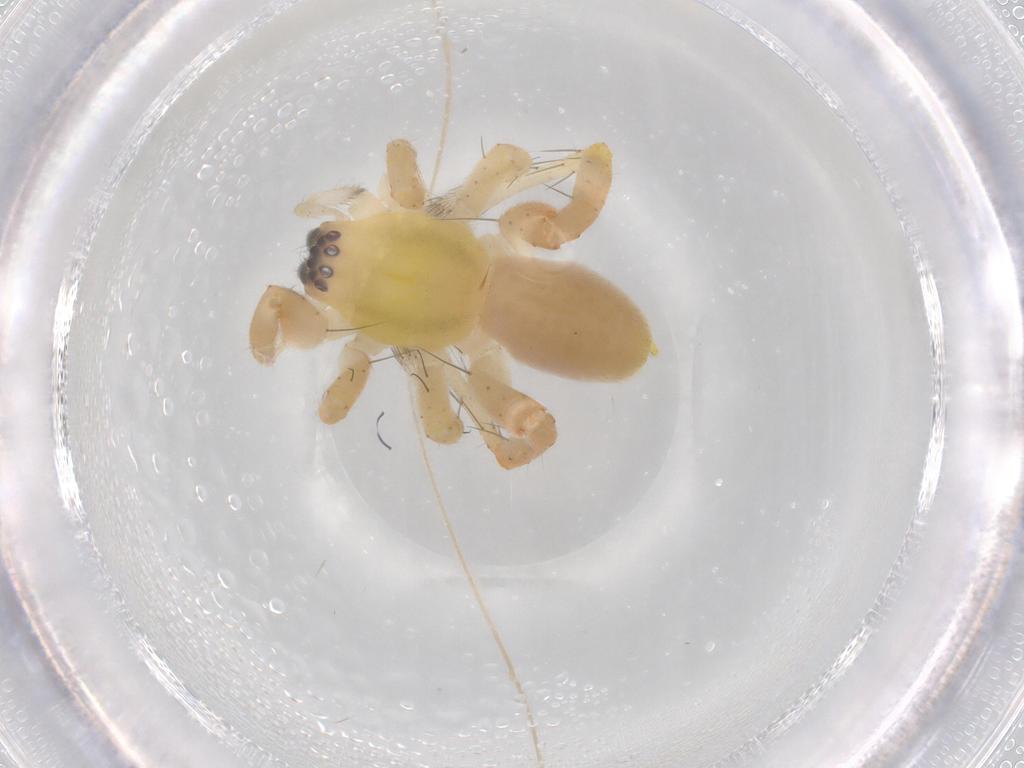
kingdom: Animalia
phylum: Arthropoda
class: Arachnida
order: Araneae
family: Anyphaenidae
